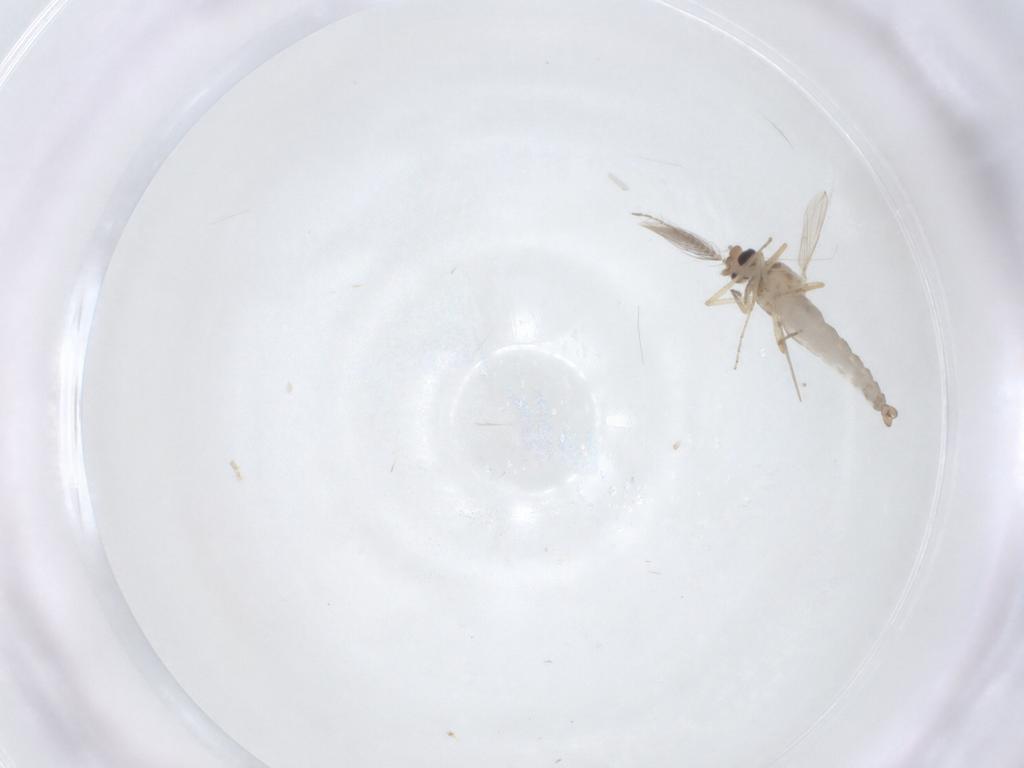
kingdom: Animalia
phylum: Arthropoda
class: Insecta
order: Diptera
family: Ceratopogonidae
